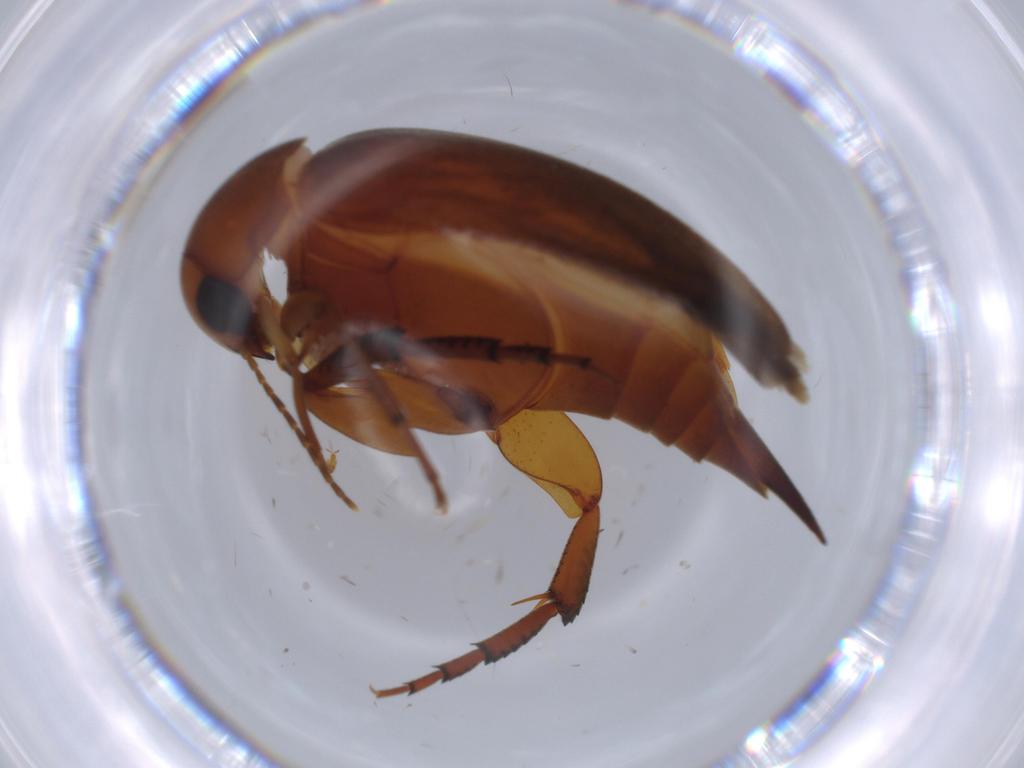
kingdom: Animalia
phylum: Arthropoda
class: Insecta
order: Coleoptera
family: Mordellidae
